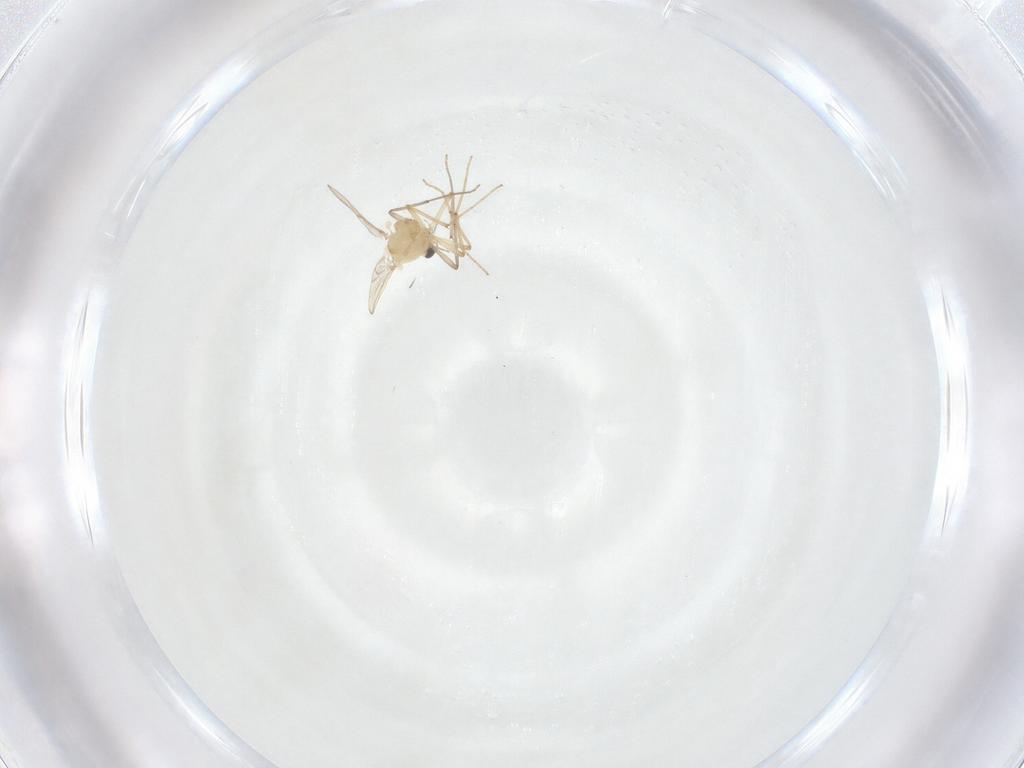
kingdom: Animalia
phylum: Arthropoda
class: Insecta
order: Diptera
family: Chironomidae
